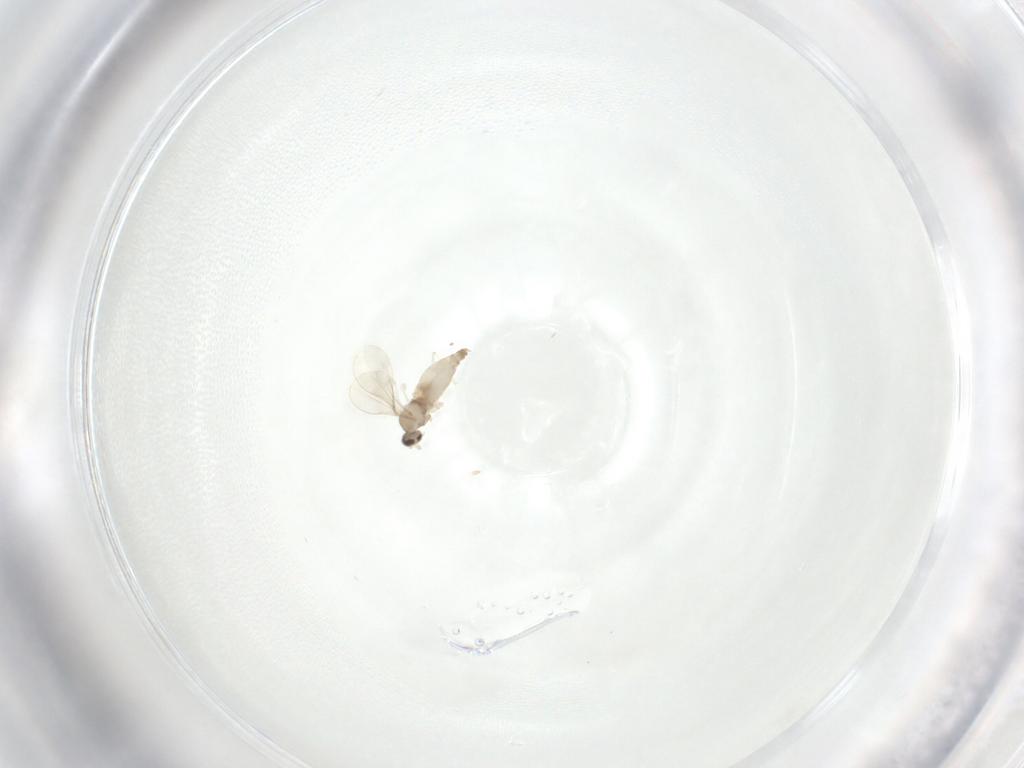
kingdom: Animalia
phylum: Arthropoda
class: Insecta
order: Diptera
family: Cecidomyiidae
